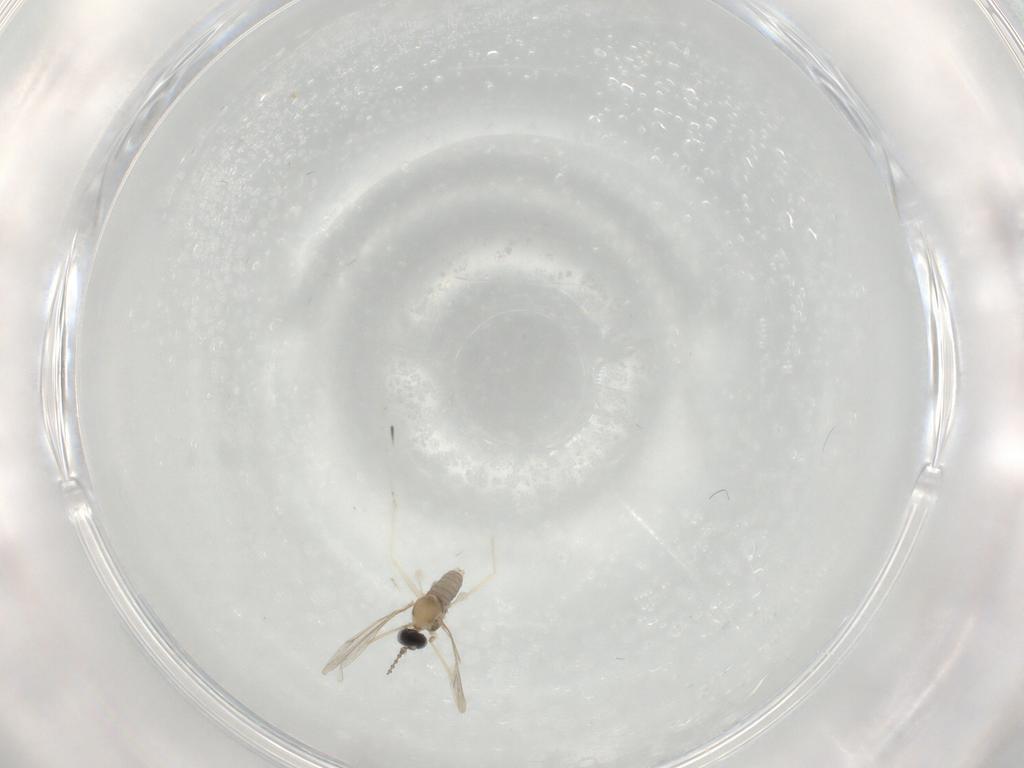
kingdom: Animalia
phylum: Arthropoda
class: Insecta
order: Diptera
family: Cecidomyiidae
